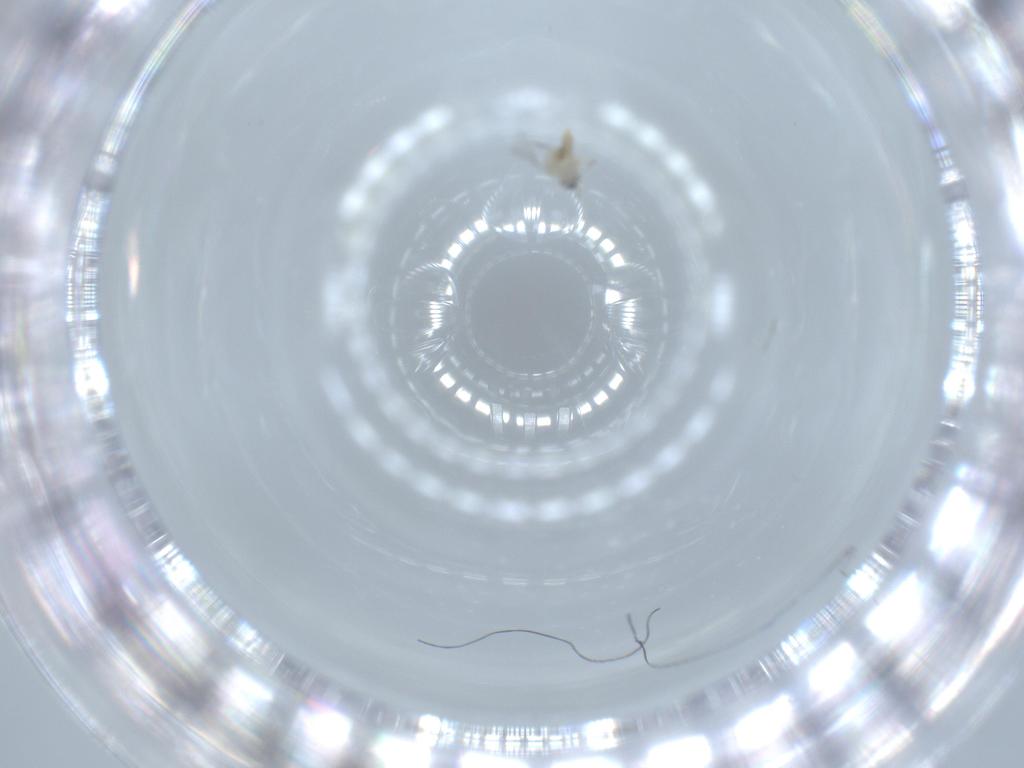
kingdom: Animalia
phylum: Arthropoda
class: Insecta
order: Diptera
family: Cecidomyiidae
